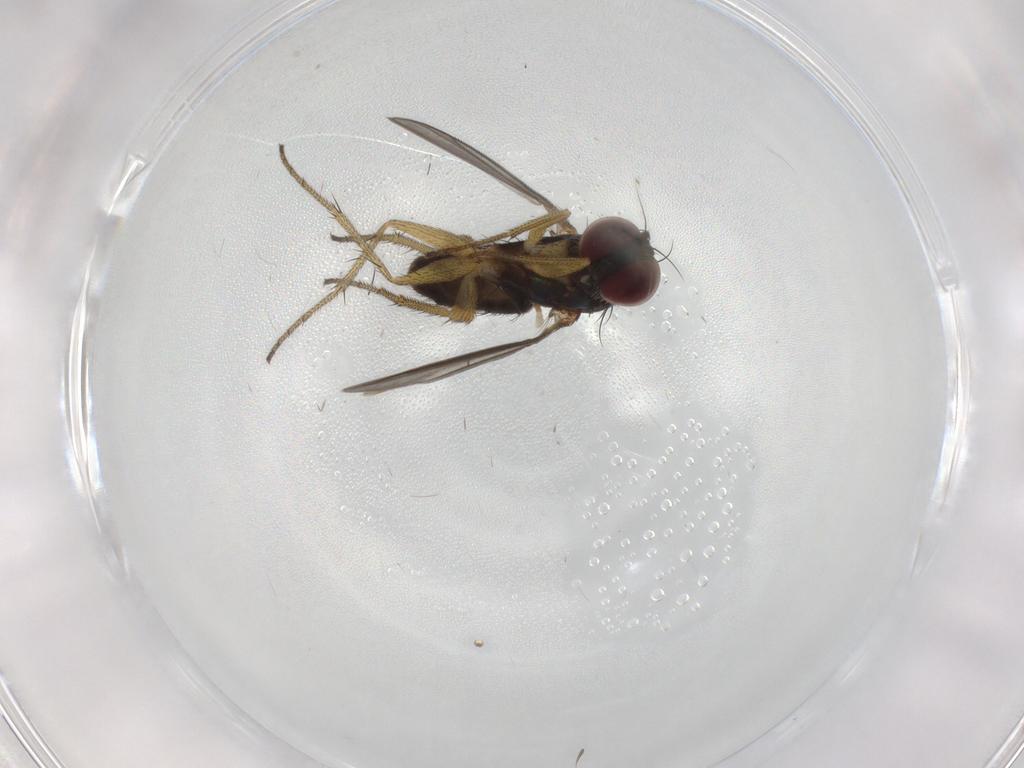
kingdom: Animalia
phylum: Arthropoda
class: Insecta
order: Diptera
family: Dolichopodidae
